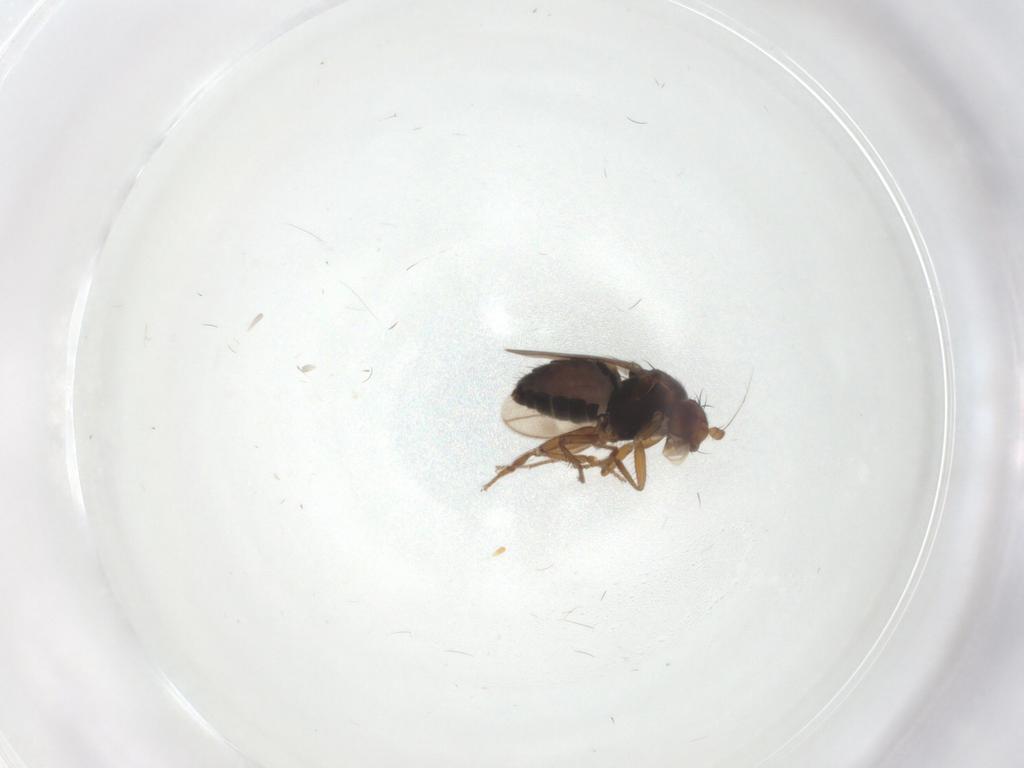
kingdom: Animalia
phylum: Arthropoda
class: Insecta
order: Diptera
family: Sphaeroceridae
